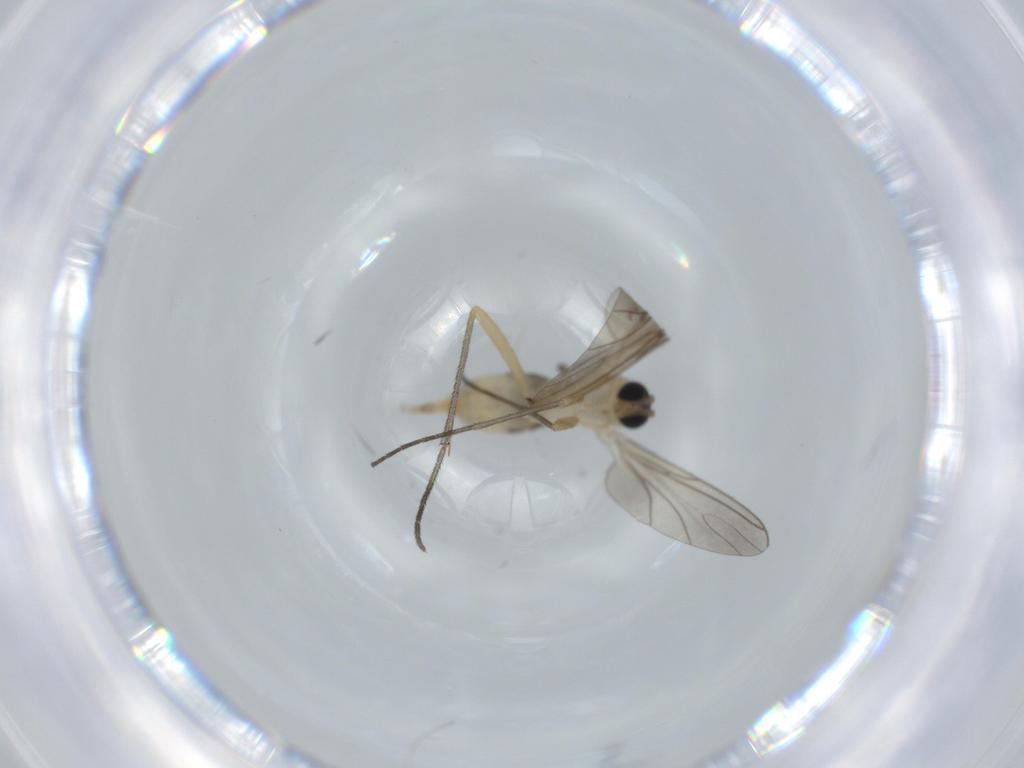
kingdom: Animalia
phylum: Arthropoda
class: Insecta
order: Diptera
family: Sciaridae
